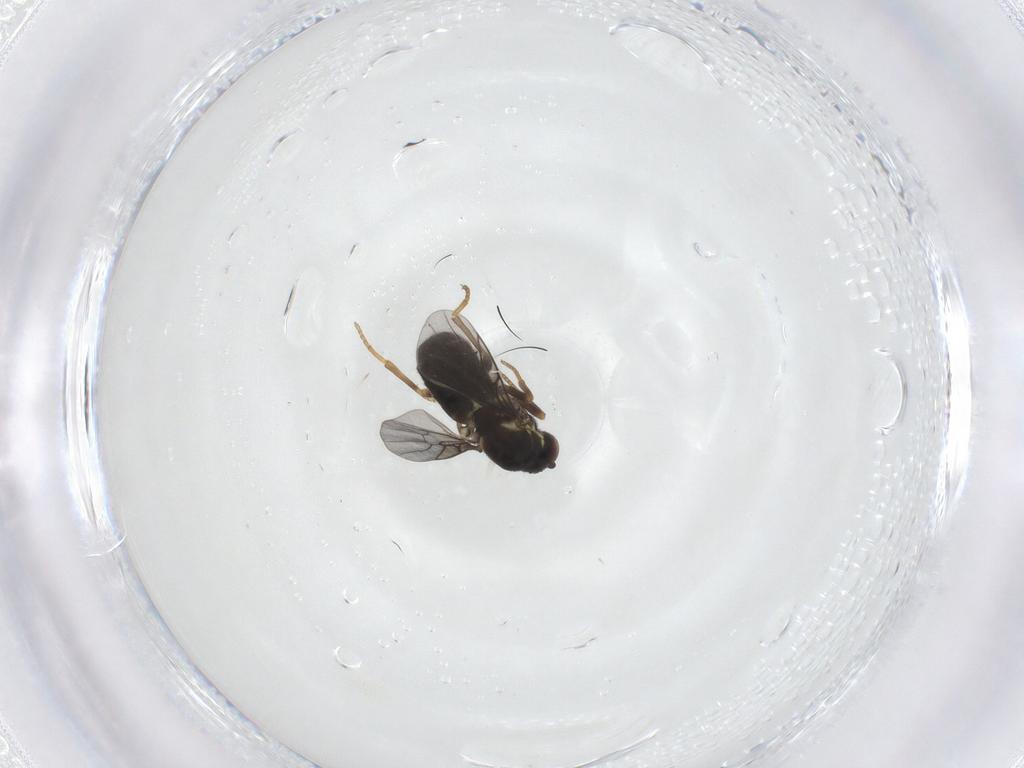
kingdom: Animalia
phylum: Arthropoda
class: Insecta
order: Diptera
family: Bombyliidae
